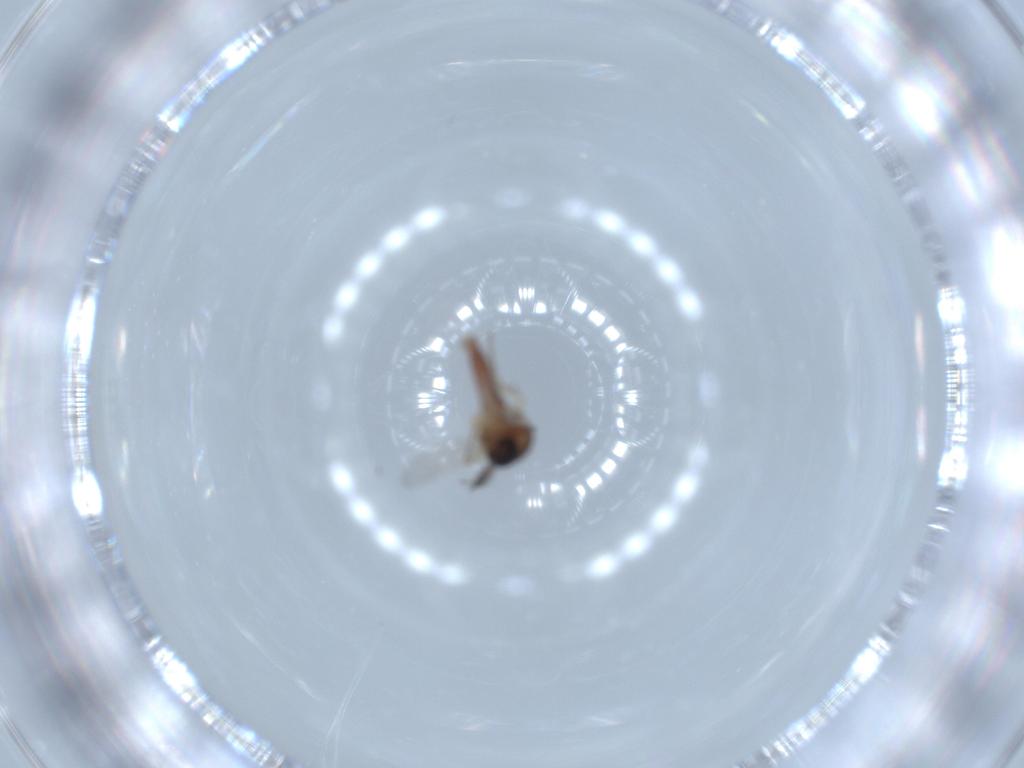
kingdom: Animalia
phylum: Arthropoda
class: Insecta
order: Diptera
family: Ceratopogonidae
